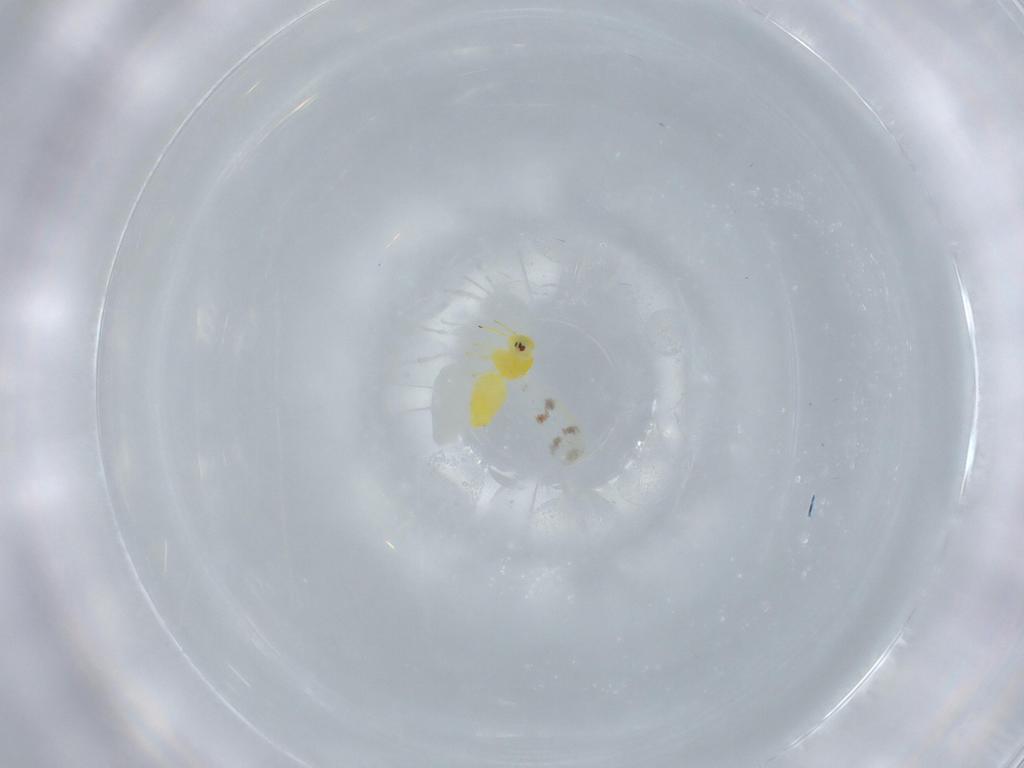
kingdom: Animalia
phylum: Arthropoda
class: Insecta
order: Hemiptera
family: Aleyrodidae
